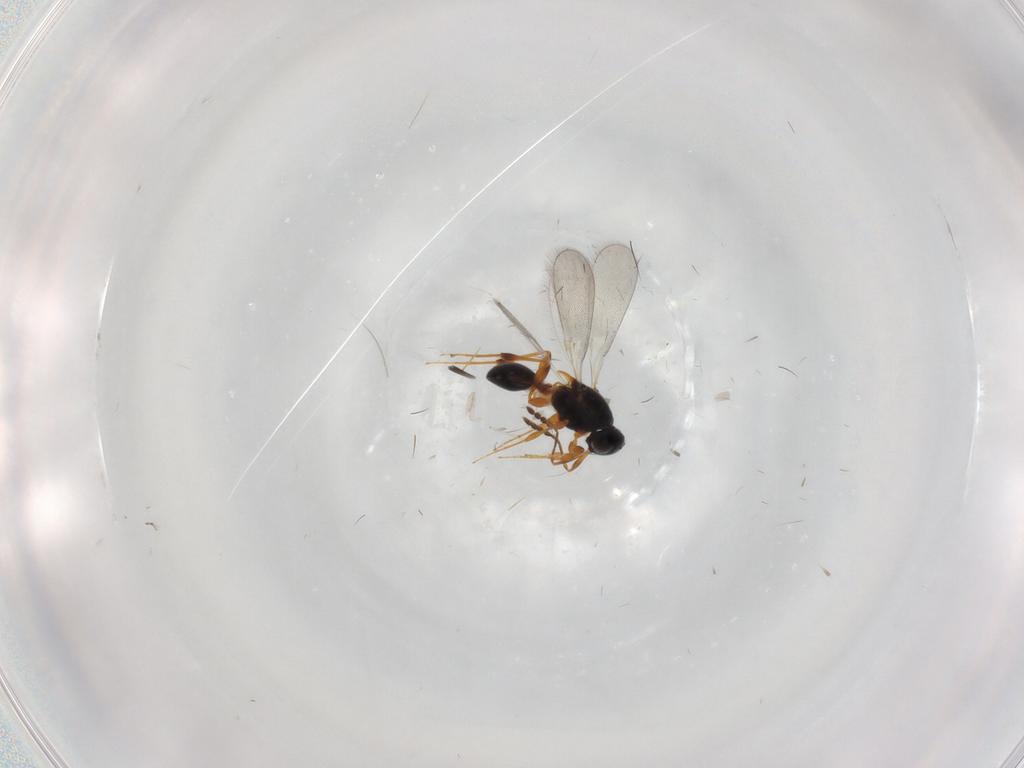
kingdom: Animalia
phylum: Arthropoda
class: Insecta
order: Hymenoptera
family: Platygastridae
